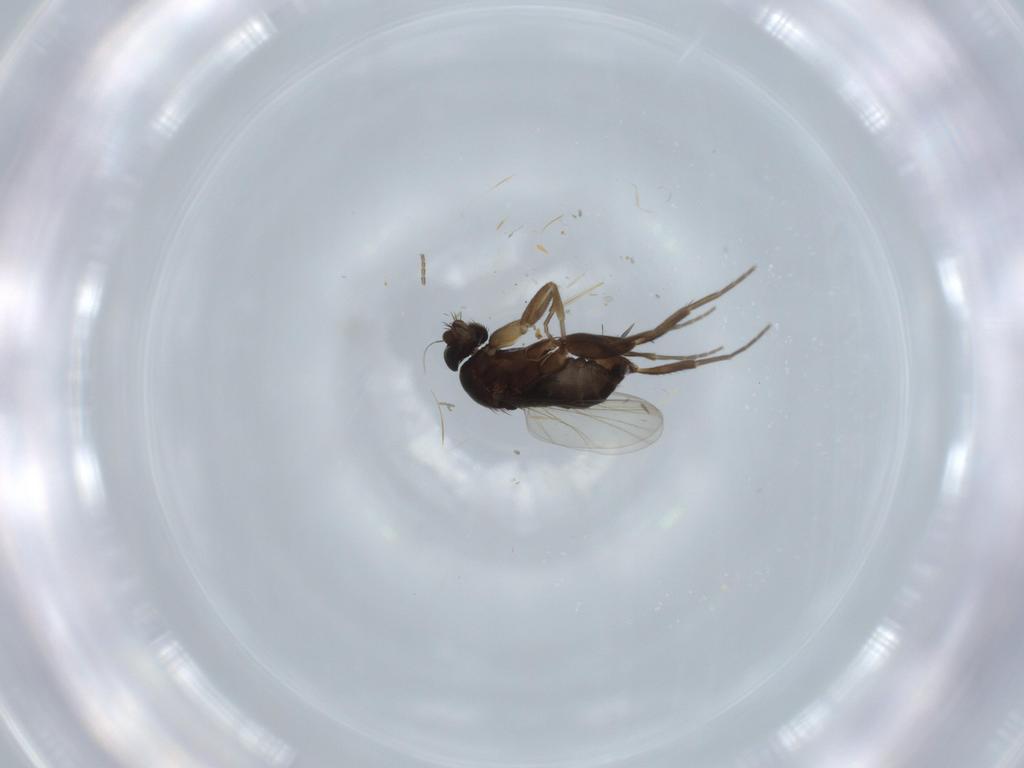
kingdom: Animalia
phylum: Arthropoda
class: Insecta
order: Diptera
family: Phoridae
